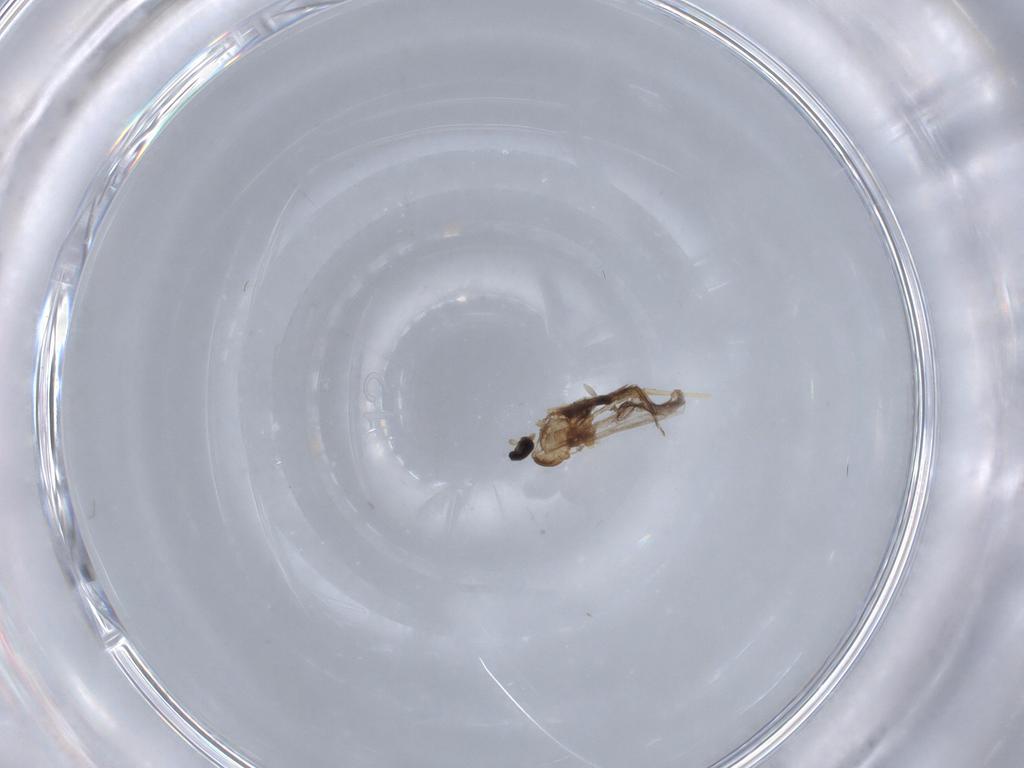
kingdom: Animalia
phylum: Arthropoda
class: Insecta
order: Diptera
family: Cecidomyiidae
